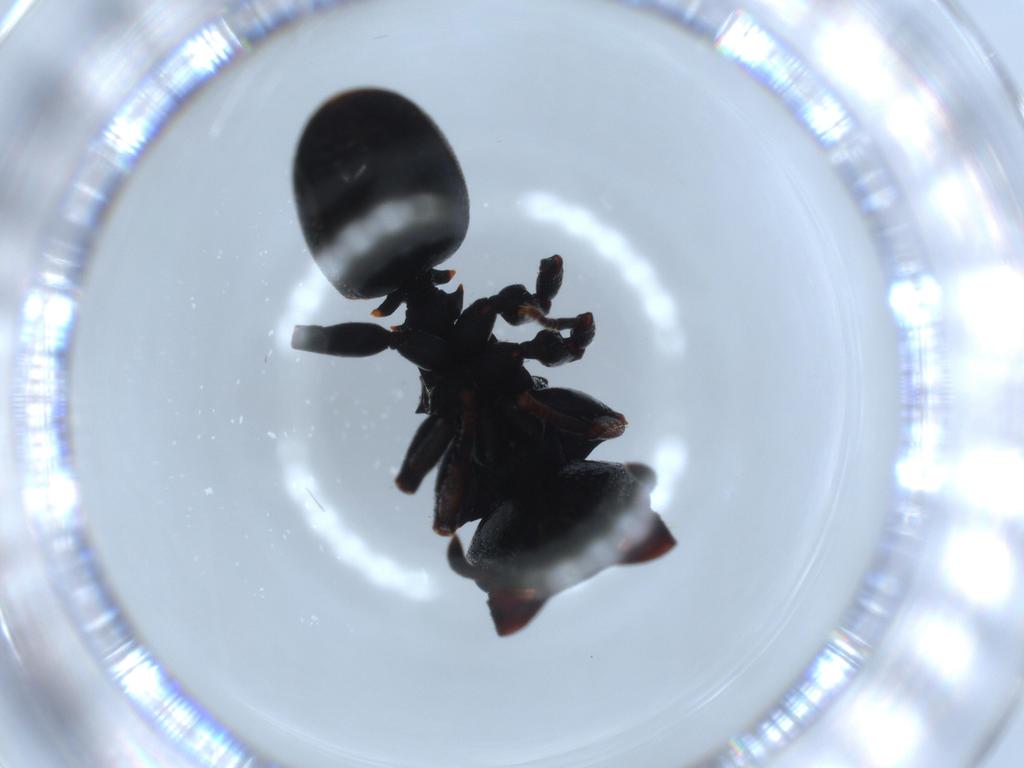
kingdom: Animalia
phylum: Arthropoda
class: Insecta
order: Hymenoptera
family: Formicidae
